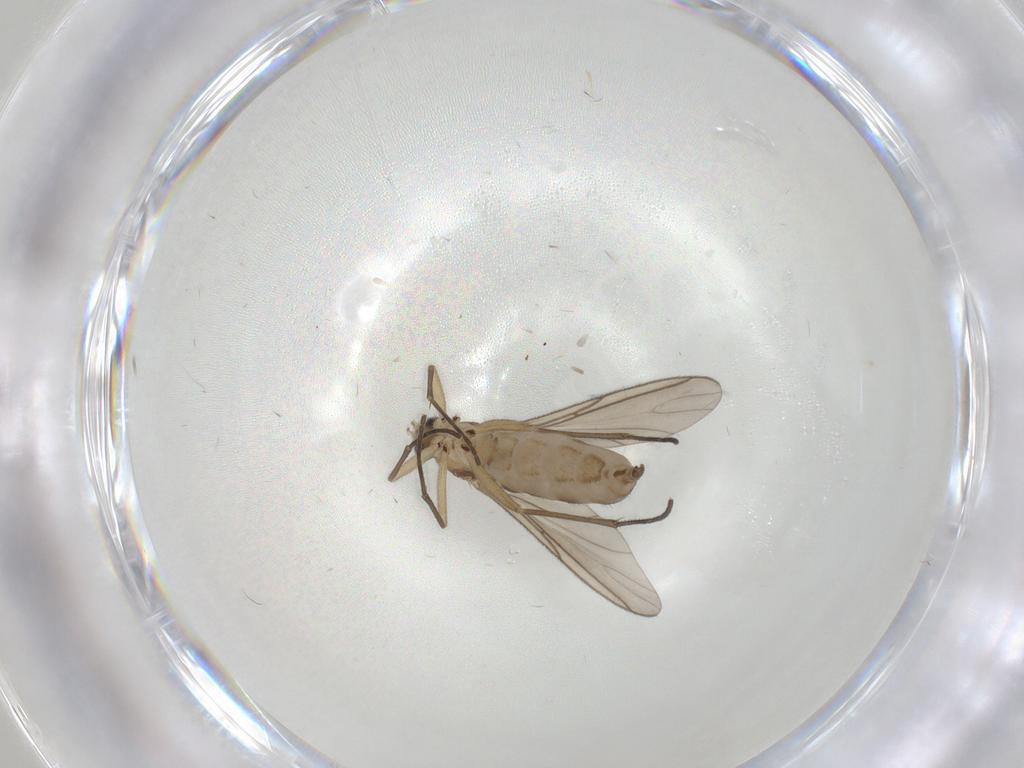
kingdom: Animalia
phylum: Arthropoda
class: Insecta
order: Diptera
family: Sciaridae
